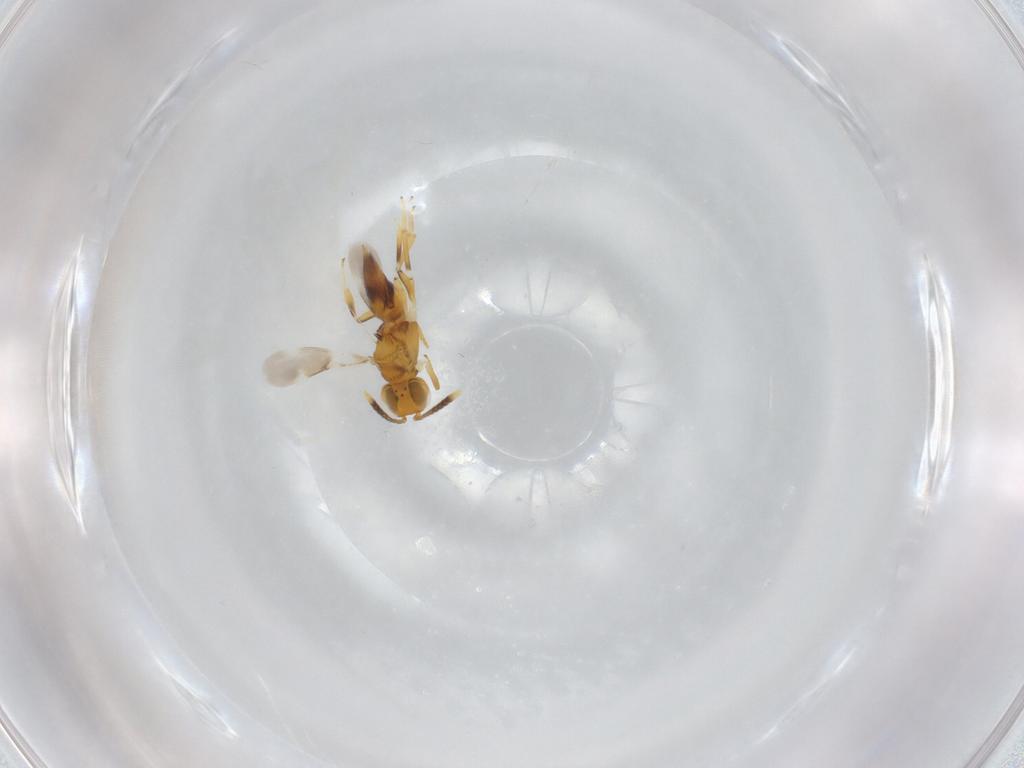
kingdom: Animalia
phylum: Arthropoda
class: Insecta
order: Hymenoptera
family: Encyrtidae
